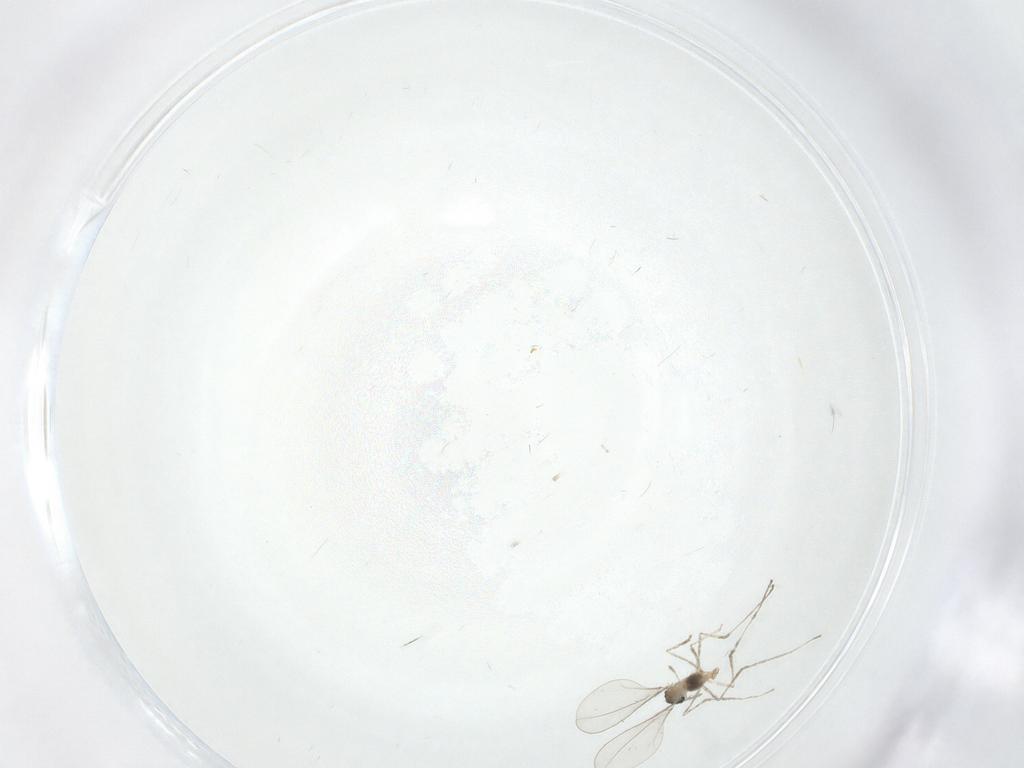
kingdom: Animalia
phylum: Arthropoda
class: Insecta
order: Diptera
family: Cecidomyiidae
